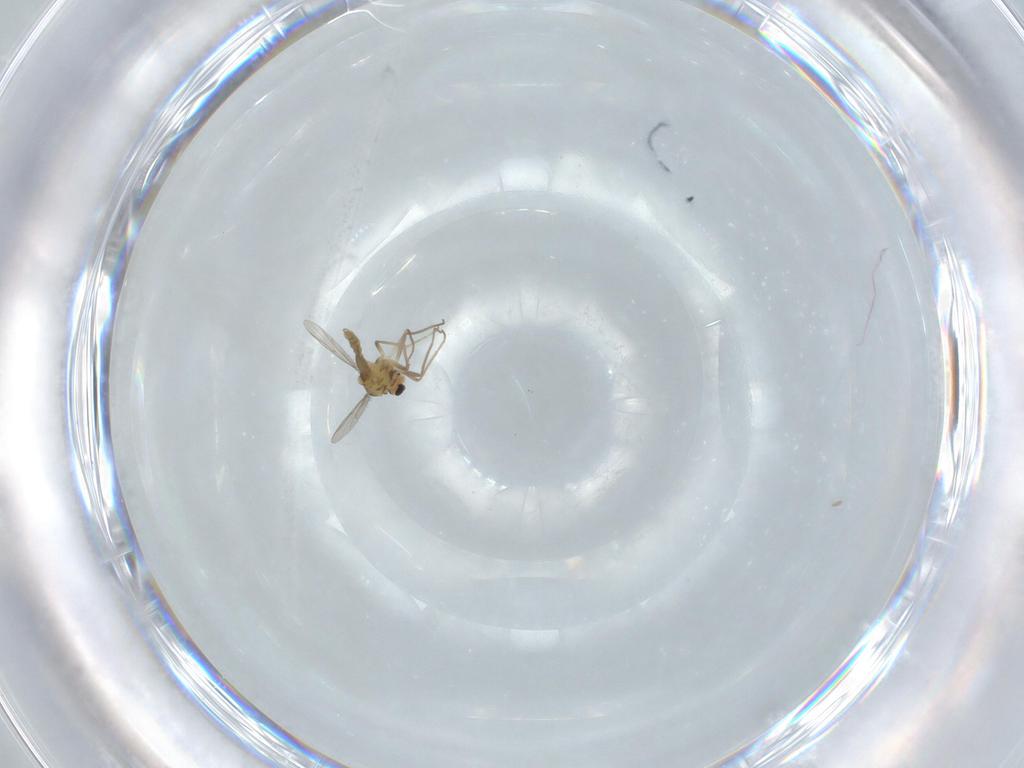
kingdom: Animalia
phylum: Arthropoda
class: Insecta
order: Diptera
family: Chironomidae
